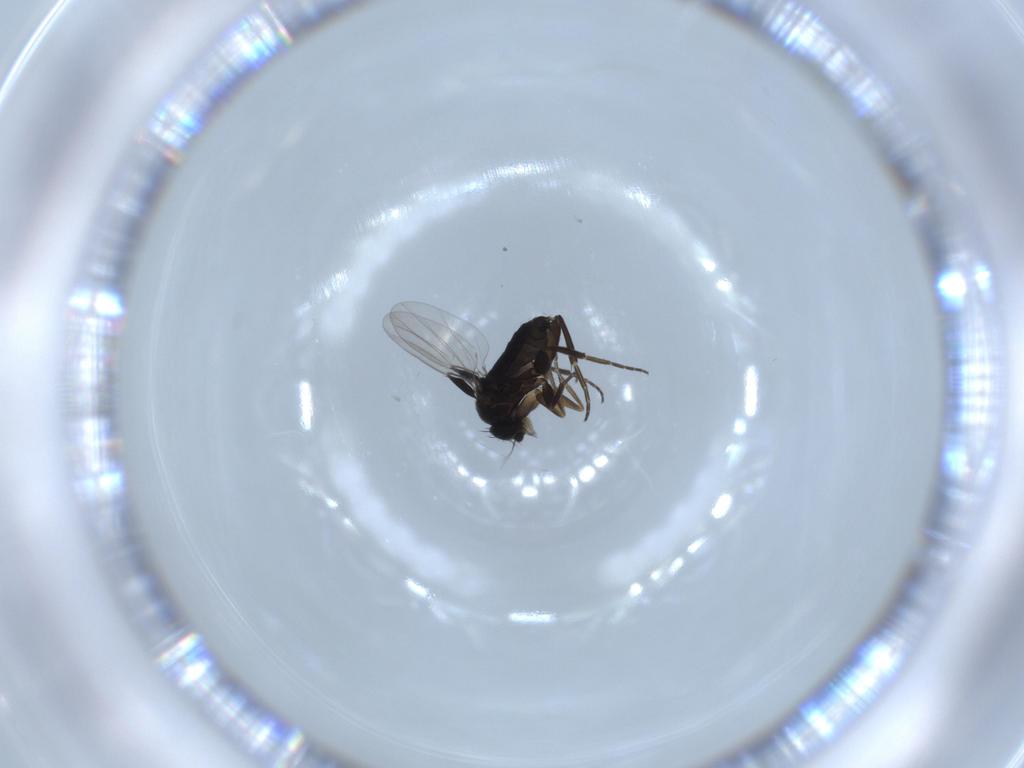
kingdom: Animalia
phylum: Arthropoda
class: Insecta
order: Diptera
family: Phoridae
